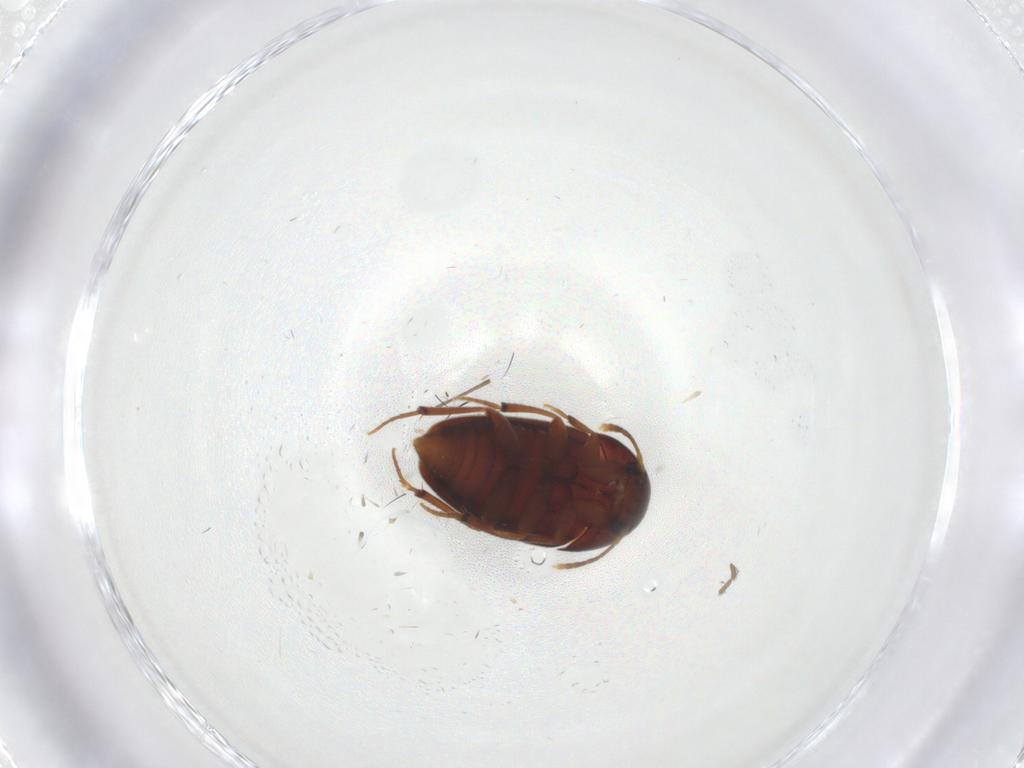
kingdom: Animalia
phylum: Arthropoda
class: Insecta
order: Coleoptera
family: Leiodidae
